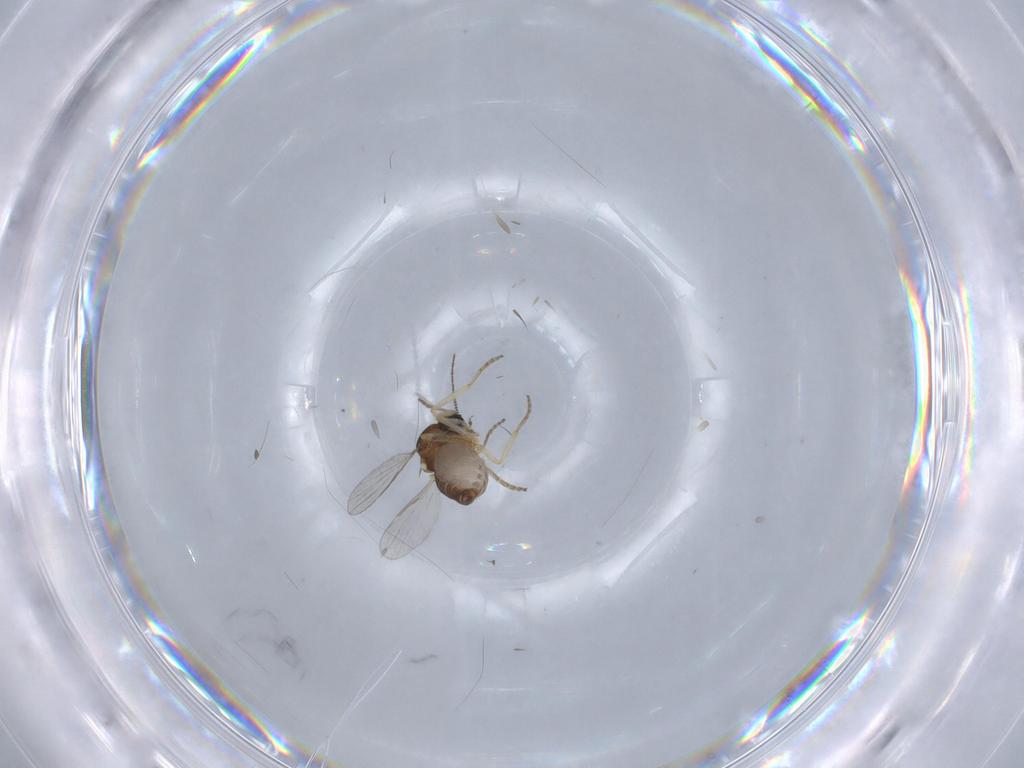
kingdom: Animalia
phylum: Arthropoda
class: Insecta
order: Diptera
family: Ceratopogonidae
